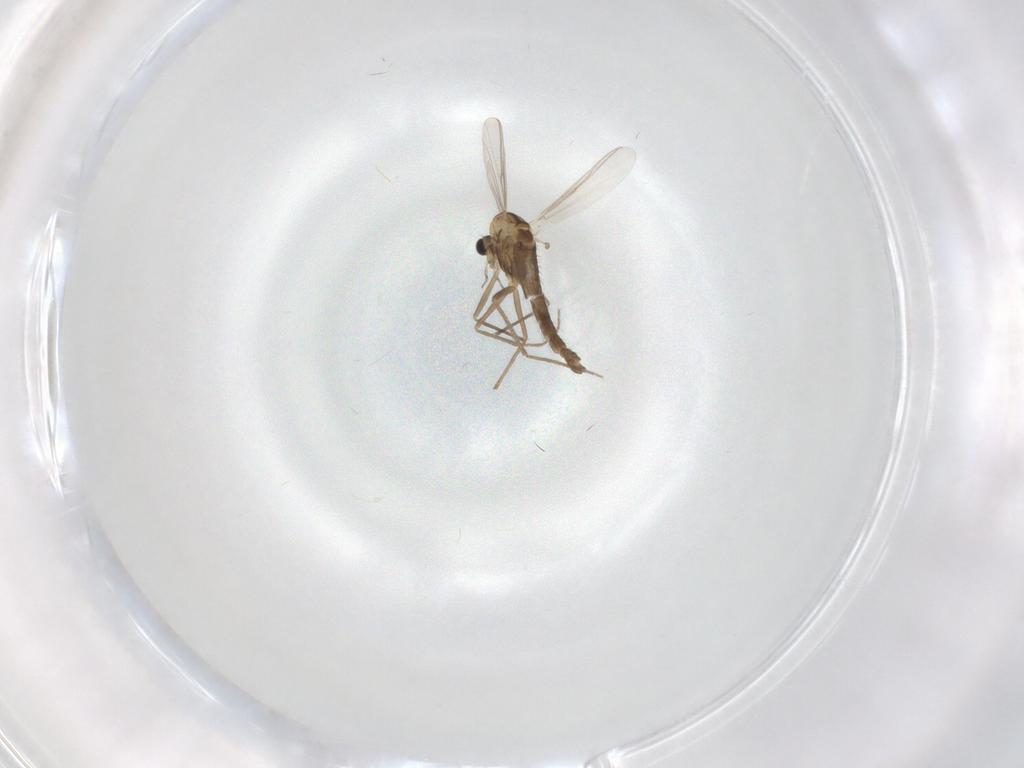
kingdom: Animalia
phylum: Arthropoda
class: Insecta
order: Diptera
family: Chironomidae
